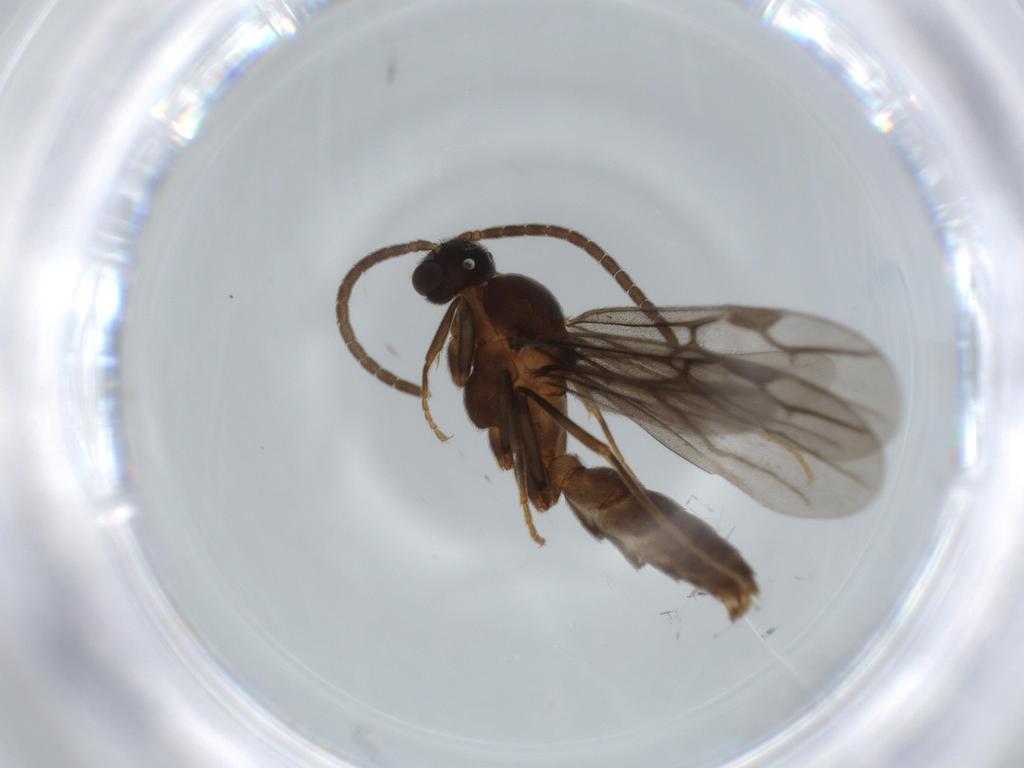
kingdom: Animalia
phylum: Arthropoda
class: Insecta
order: Hymenoptera
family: Formicidae
